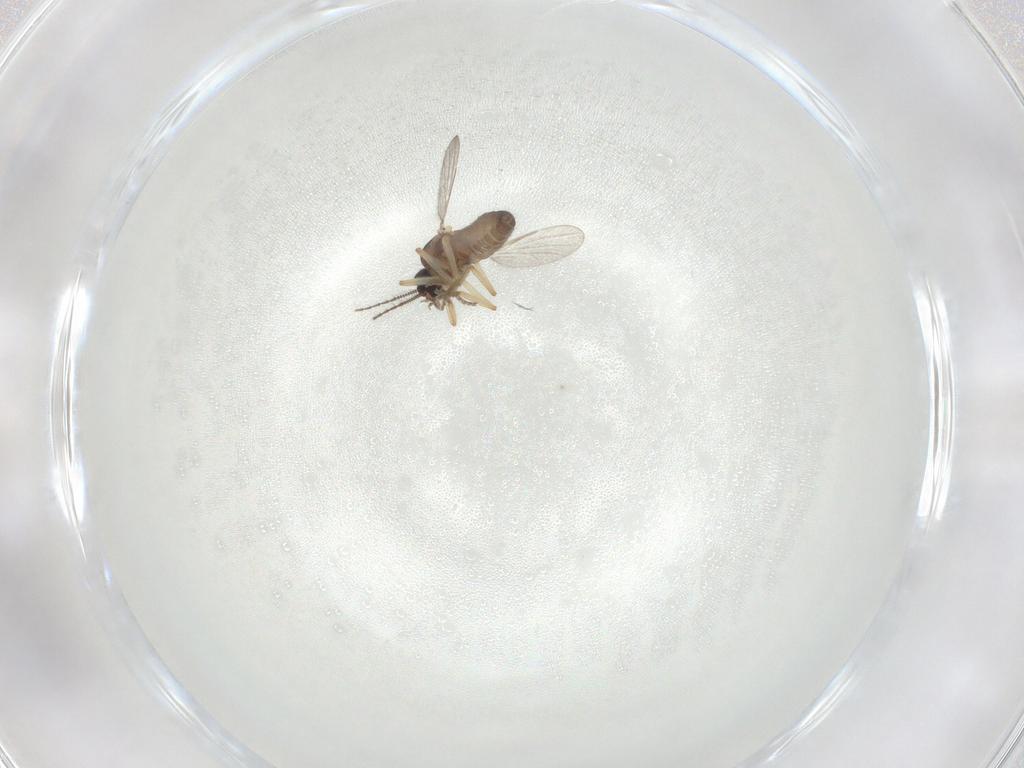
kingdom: Animalia
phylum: Arthropoda
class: Insecta
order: Diptera
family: Ceratopogonidae
